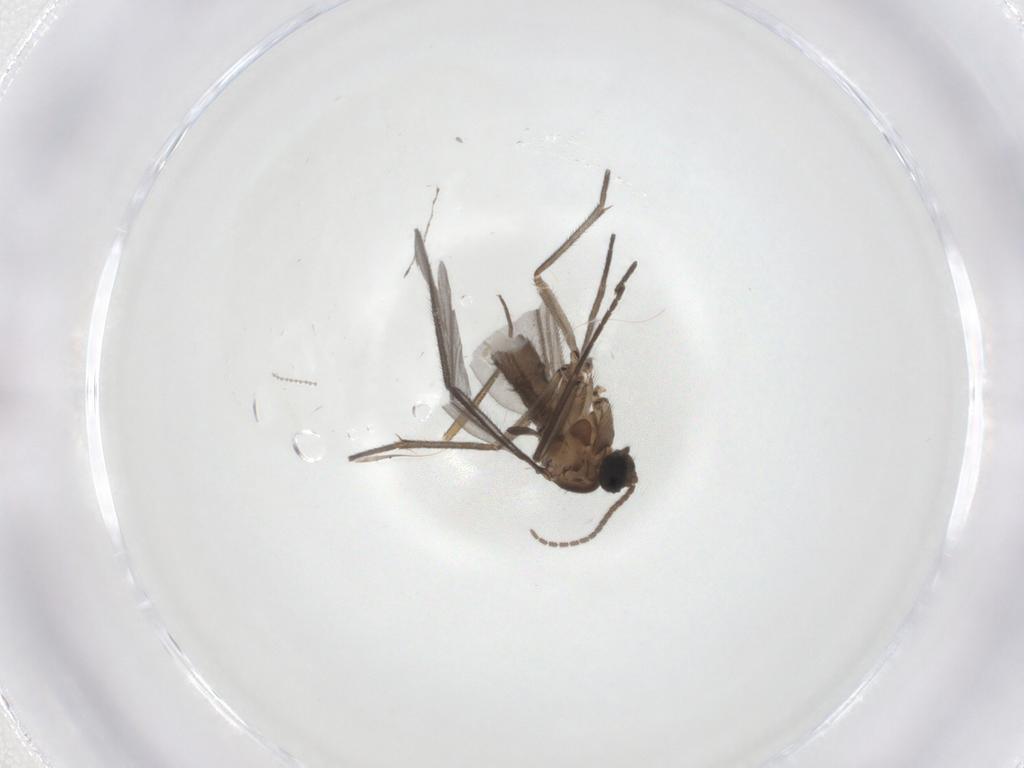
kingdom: Animalia
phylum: Arthropoda
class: Insecta
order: Diptera
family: Sciaridae
